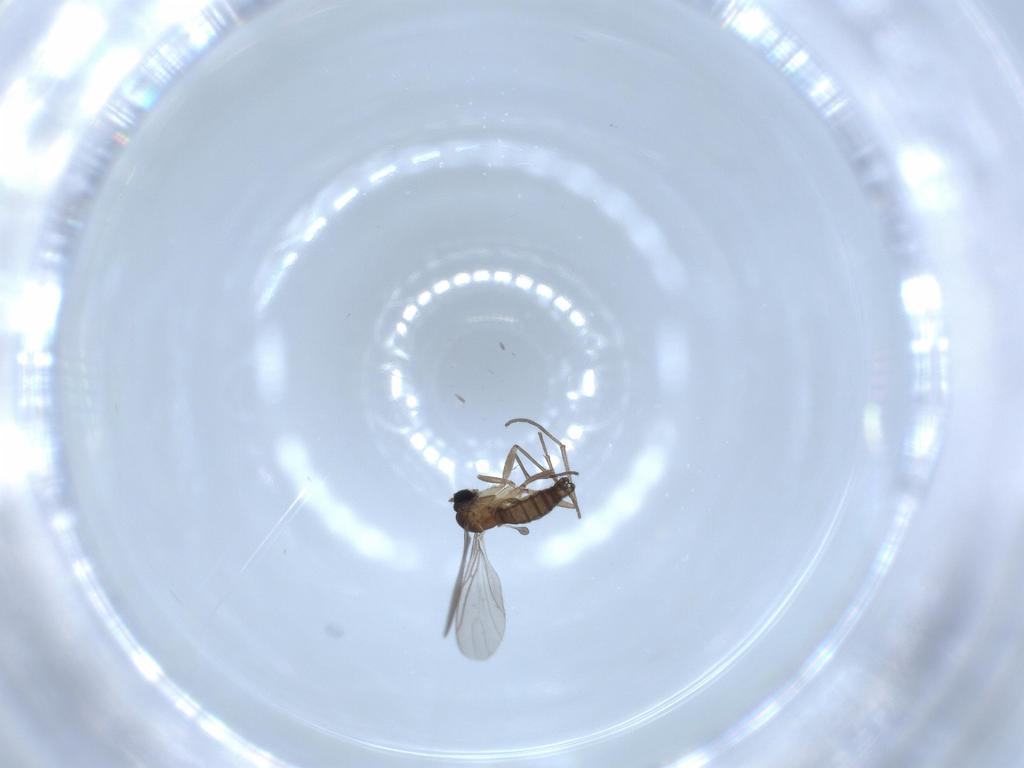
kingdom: Animalia
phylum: Arthropoda
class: Insecta
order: Diptera
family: Sciaridae
